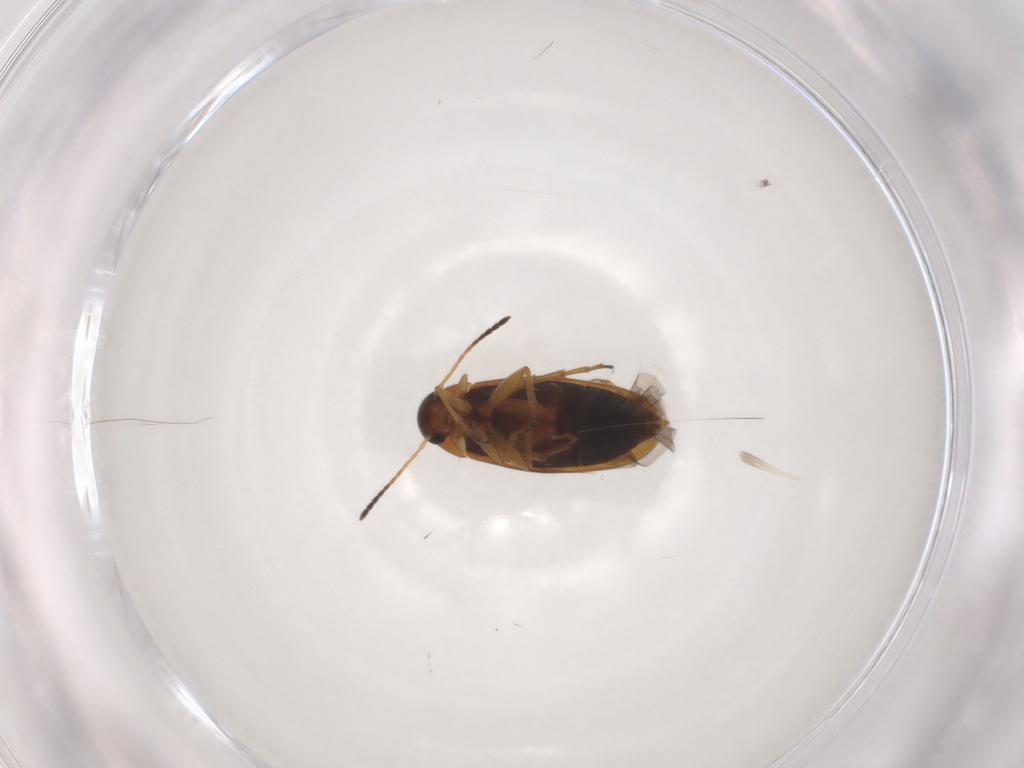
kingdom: Animalia
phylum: Arthropoda
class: Insecta
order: Coleoptera
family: Scraptiidae
